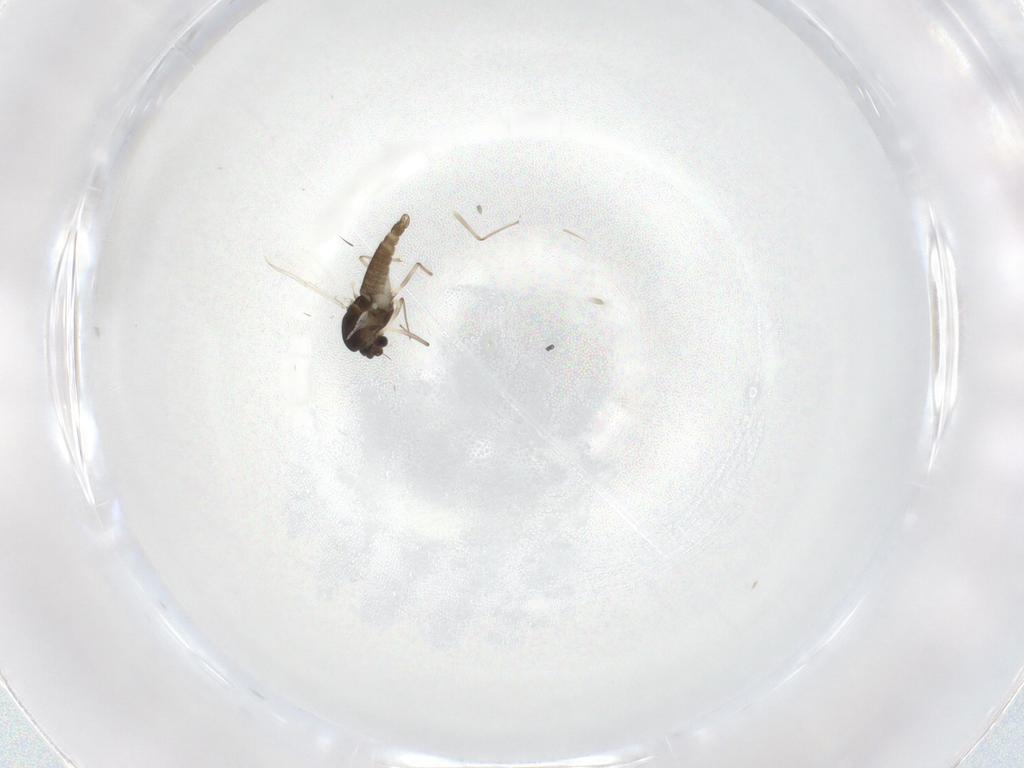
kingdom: Animalia
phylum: Arthropoda
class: Insecta
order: Diptera
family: Chironomidae
